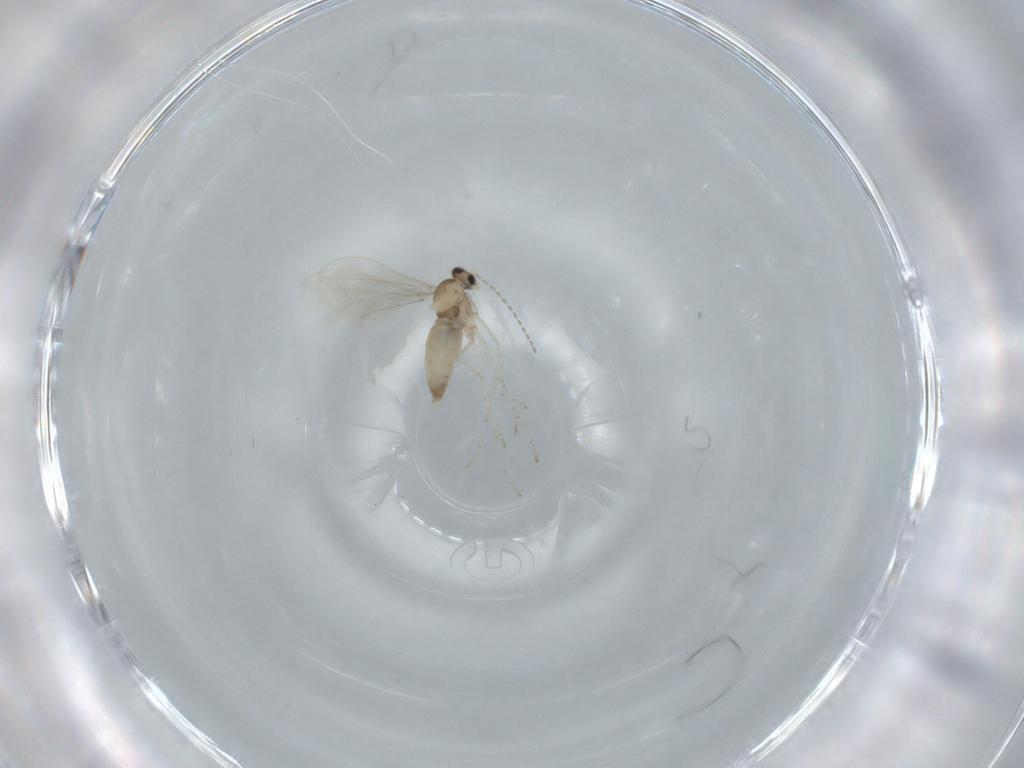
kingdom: Animalia
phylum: Arthropoda
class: Insecta
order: Diptera
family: Cecidomyiidae
